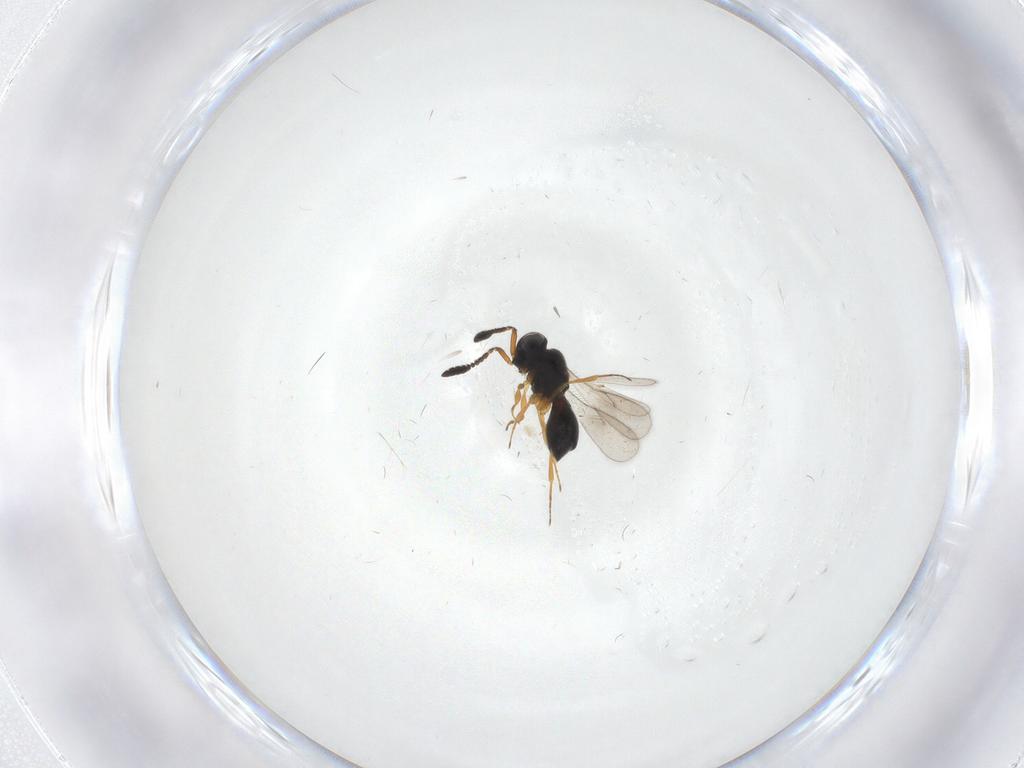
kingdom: Animalia
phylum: Arthropoda
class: Insecta
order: Hymenoptera
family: Scelionidae
